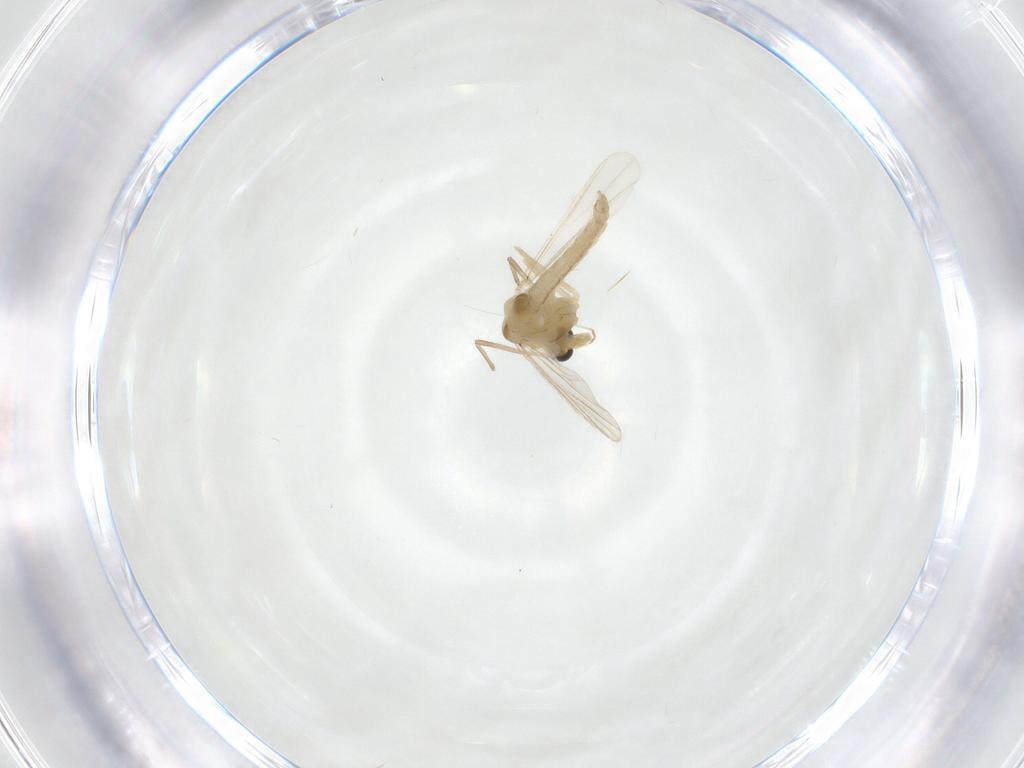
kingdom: Animalia
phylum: Arthropoda
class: Insecta
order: Diptera
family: Chironomidae
